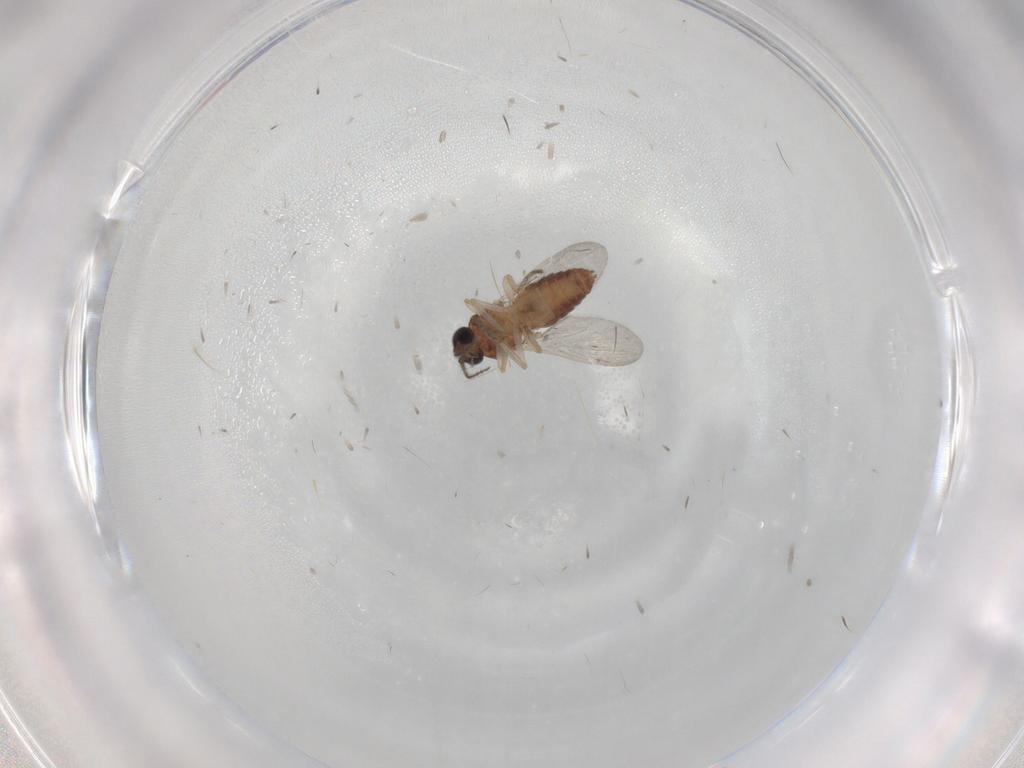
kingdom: Animalia
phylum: Arthropoda
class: Insecta
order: Diptera
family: Ceratopogonidae
